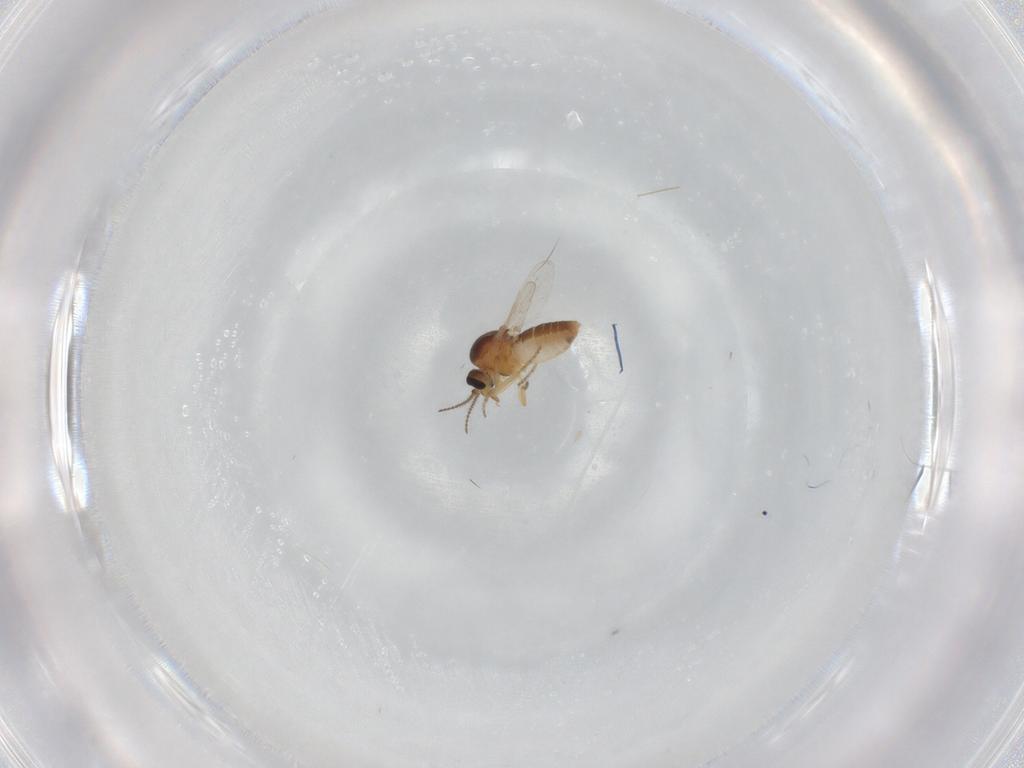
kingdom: Animalia
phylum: Arthropoda
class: Insecta
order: Diptera
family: Ceratopogonidae
